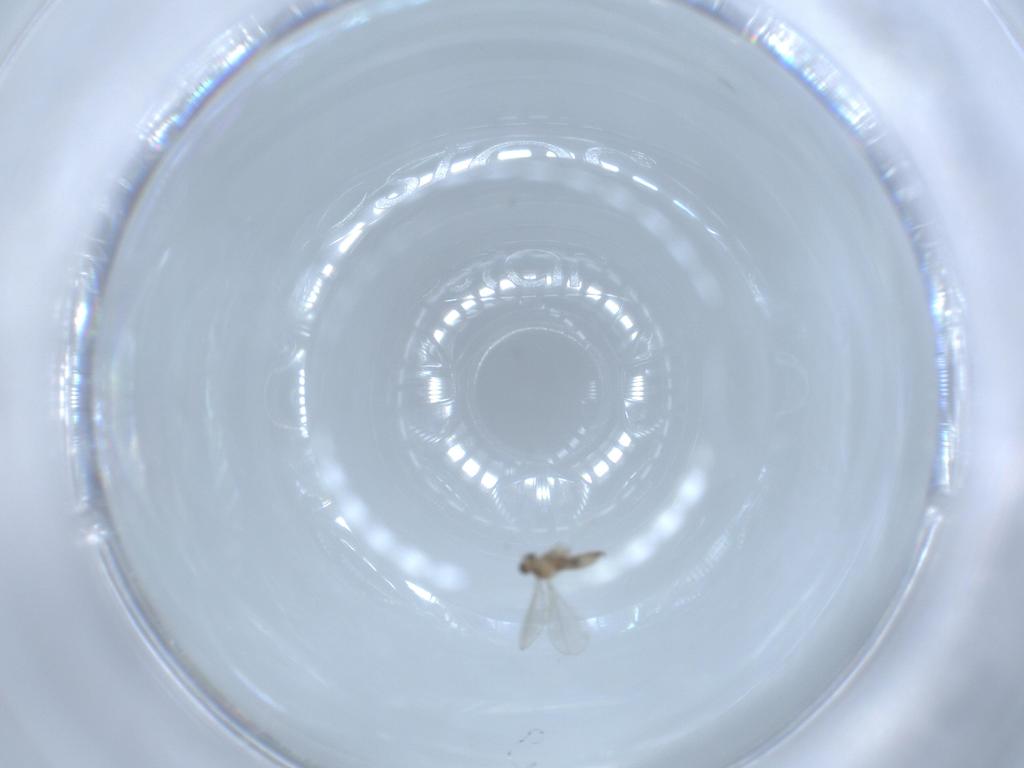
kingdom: Animalia
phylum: Arthropoda
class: Insecta
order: Diptera
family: Cecidomyiidae
